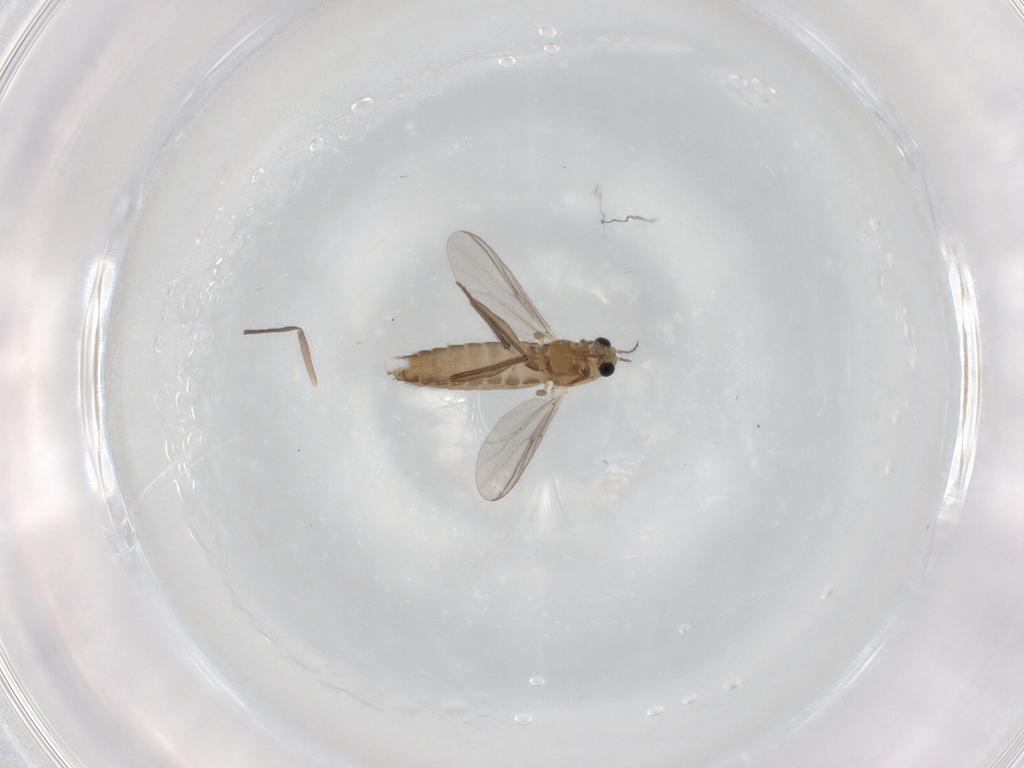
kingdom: Animalia
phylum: Arthropoda
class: Insecta
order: Diptera
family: Chironomidae
